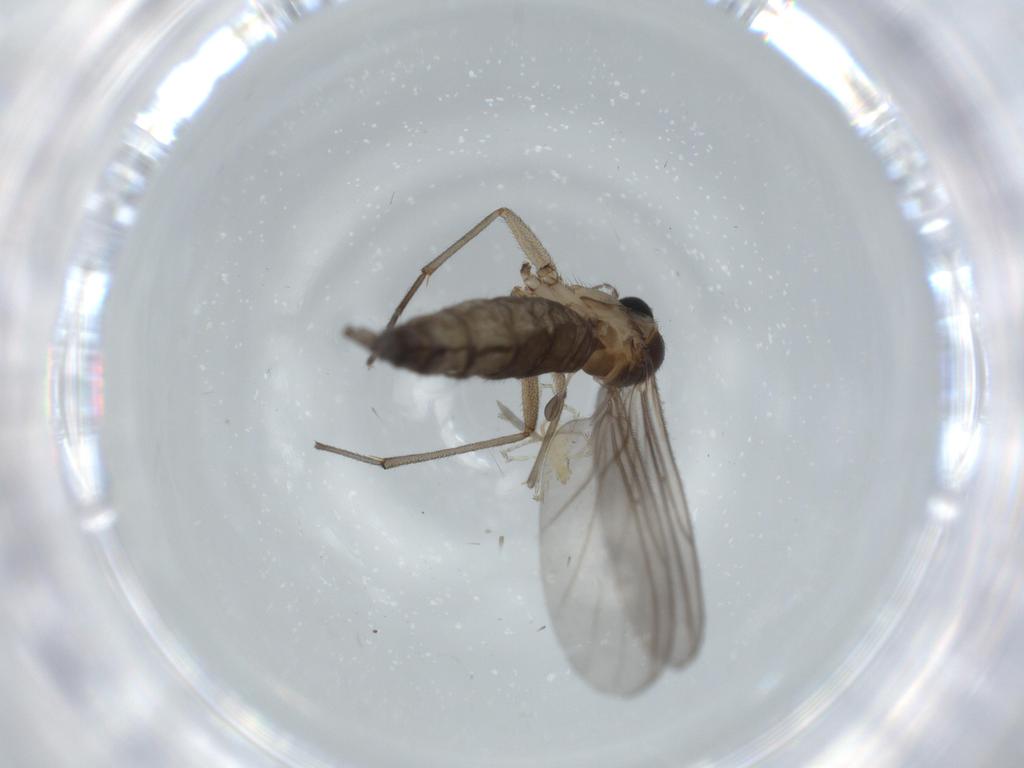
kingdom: Animalia
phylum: Arthropoda
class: Insecta
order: Diptera
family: Sciaridae
